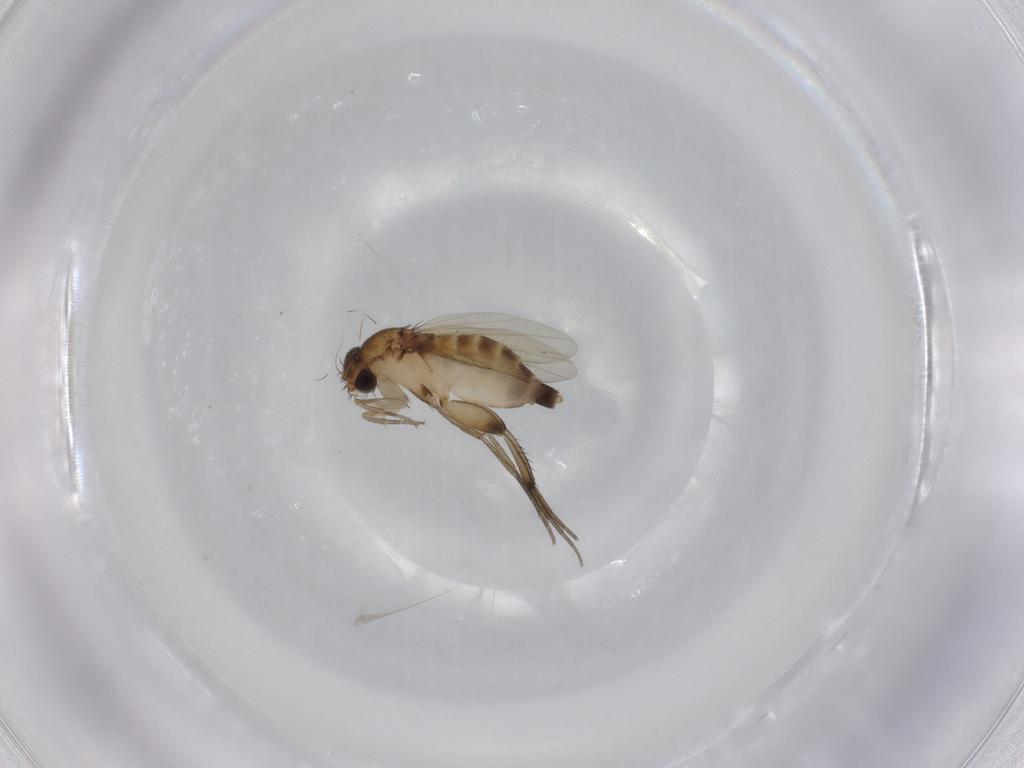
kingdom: Animalia
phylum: Arthropoda
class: Insecta
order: Diptera
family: Phoridae
